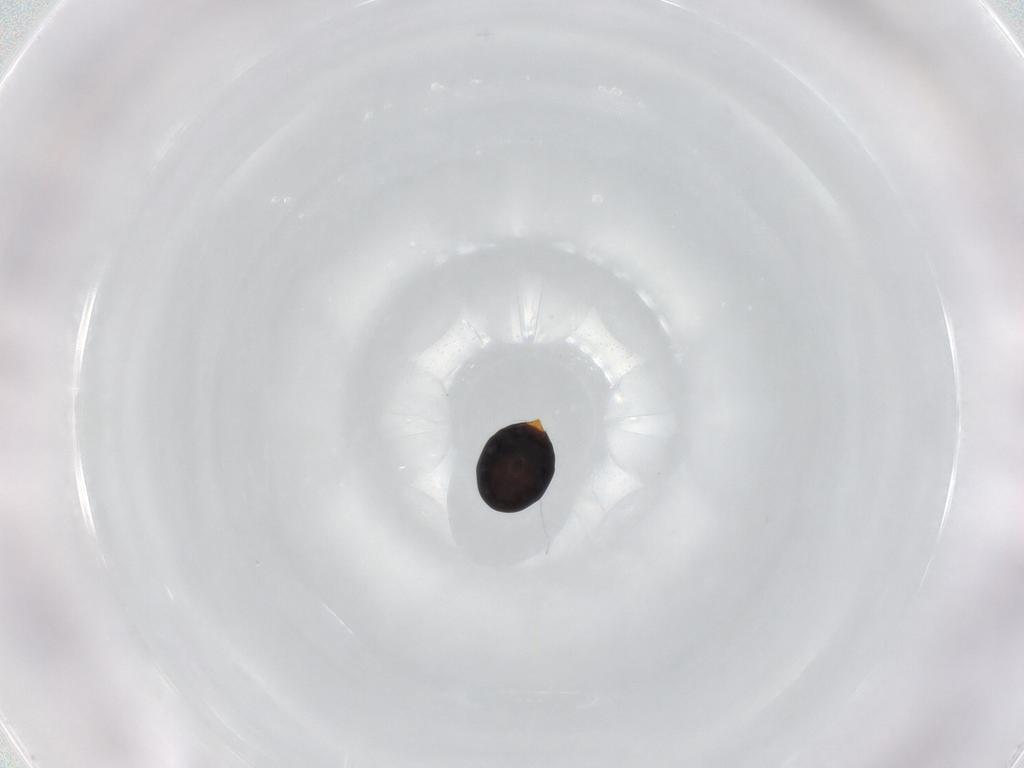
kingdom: Animalia
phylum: Arthropoda
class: Insecta
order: Hymenoptera
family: Scelionidae
